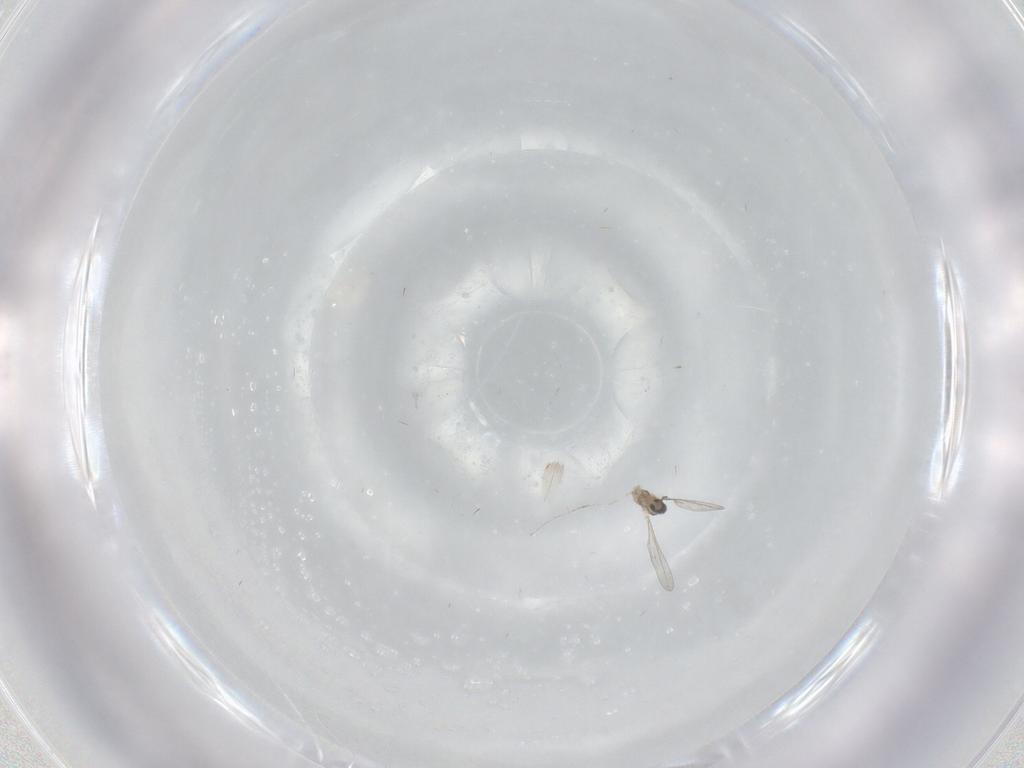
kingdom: Animalia
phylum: Arthropoda
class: Insecta
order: Diptera
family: Cecidomyiidae
